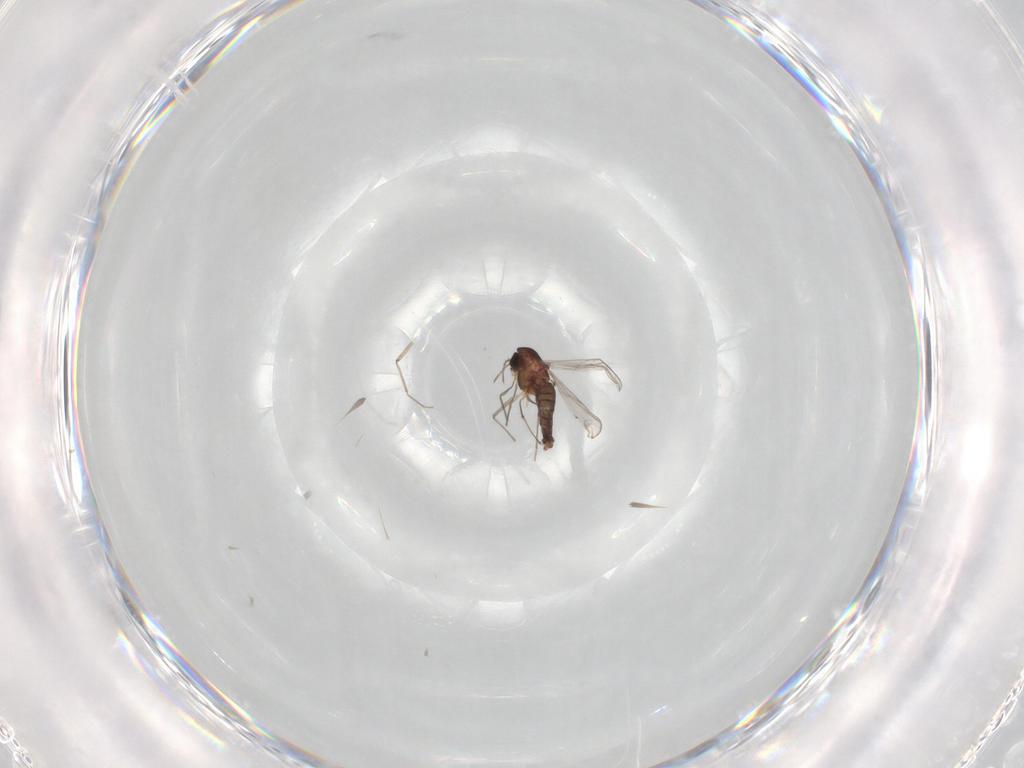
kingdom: Animalia
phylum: Arthropoda
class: Insecta
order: Diptera
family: Chironomidae
